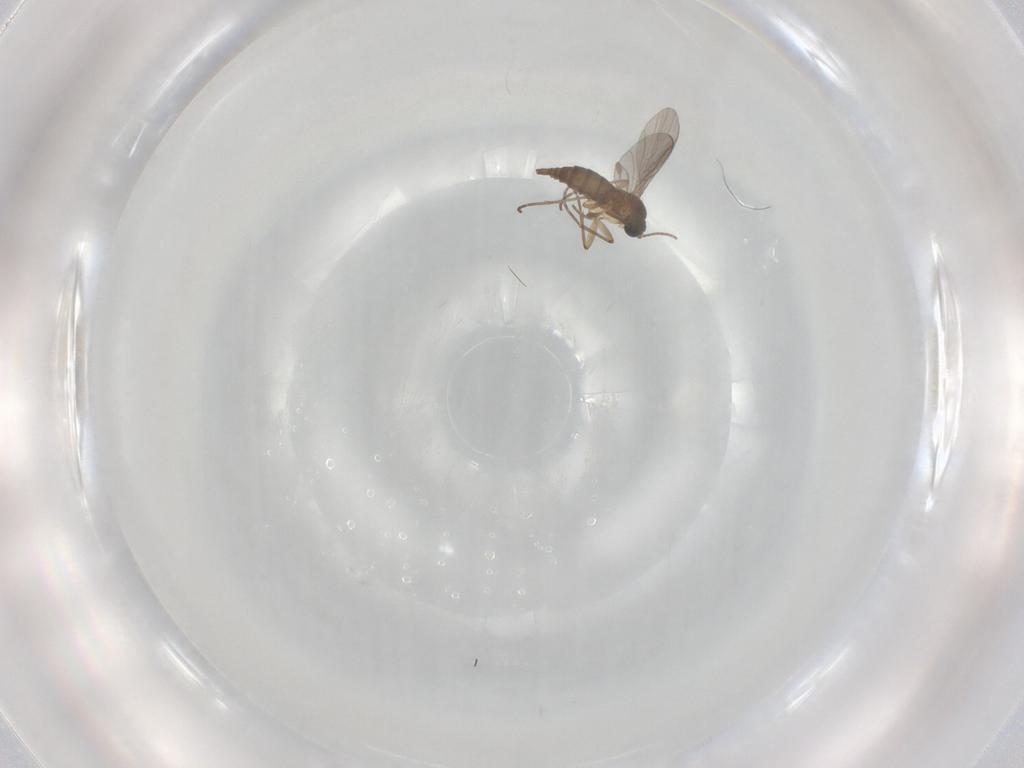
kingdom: Animalia
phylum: Arthropoda
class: Insecta
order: Diptera
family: Sciaridae
